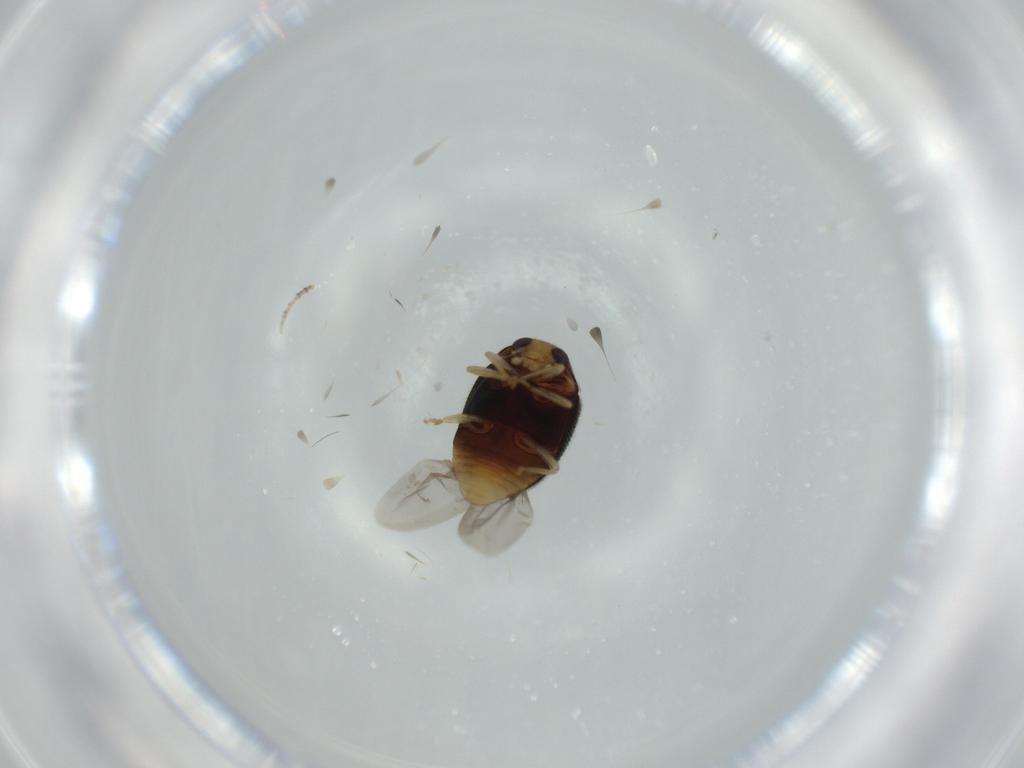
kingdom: Animalia
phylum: Arthropoda
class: Insecta
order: Coleoptera
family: Coccinellidae
